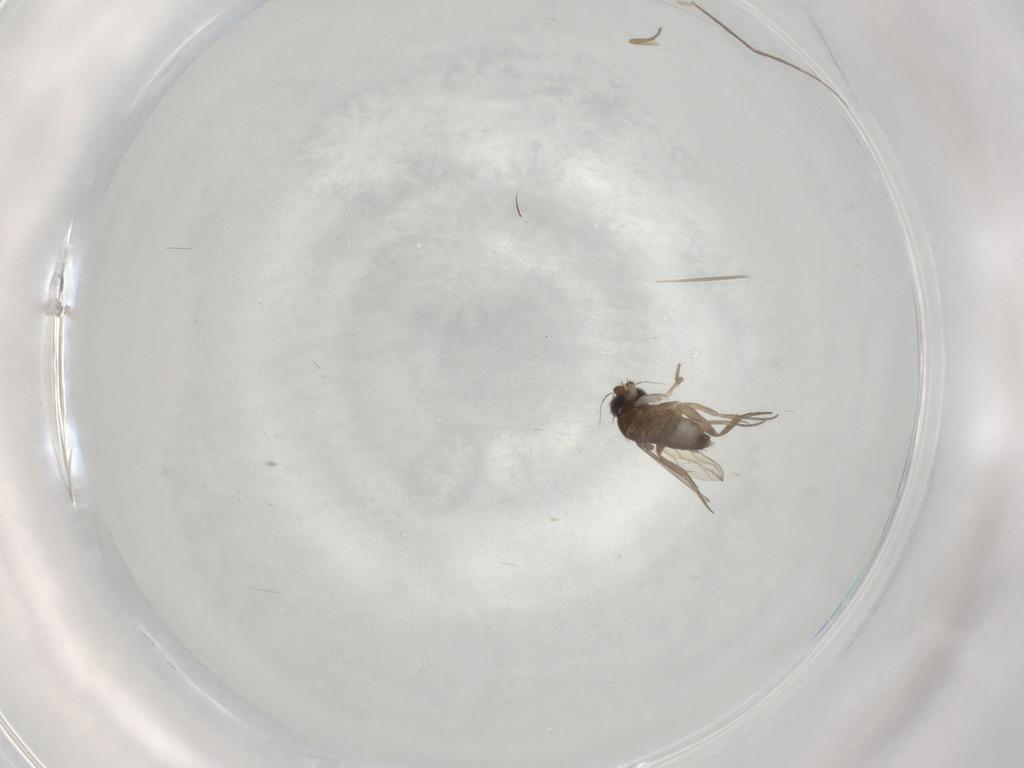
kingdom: Animalia
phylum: Arthropoda
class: Insecta
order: Diptera
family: Phoridae
